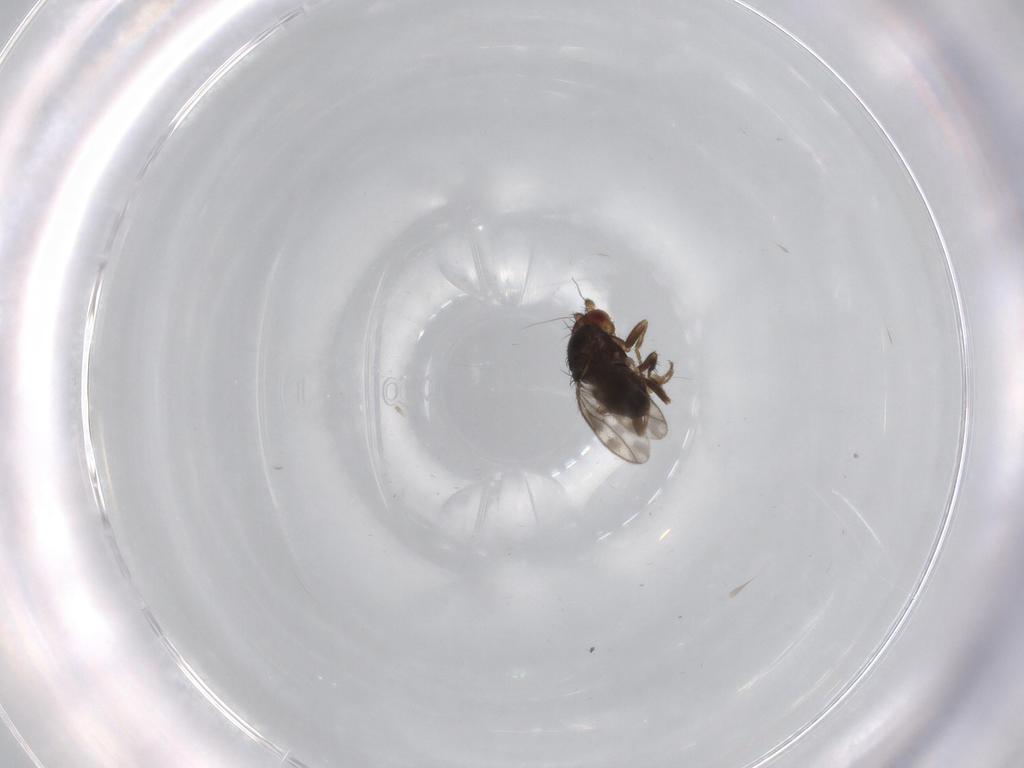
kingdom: Animalia
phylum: Arthropoda
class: Insecta
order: Diptera
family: Sphaeroceridae
